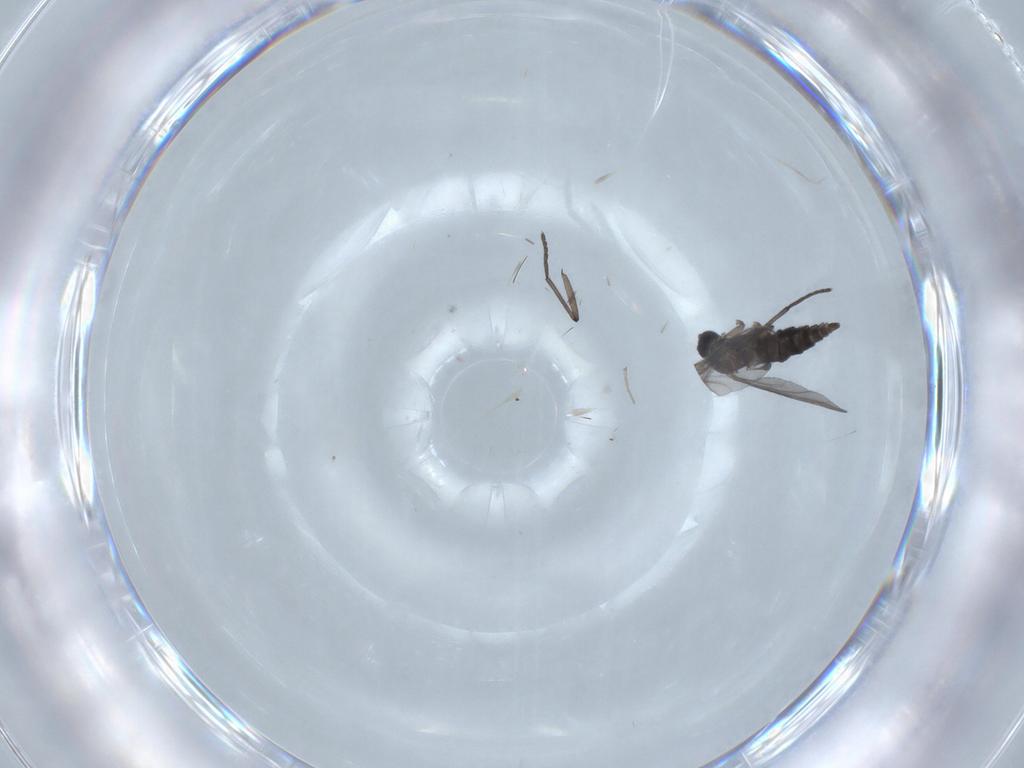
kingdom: Animalia
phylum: Arthropoda
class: Insecta
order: Diptera
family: Sciaridae
